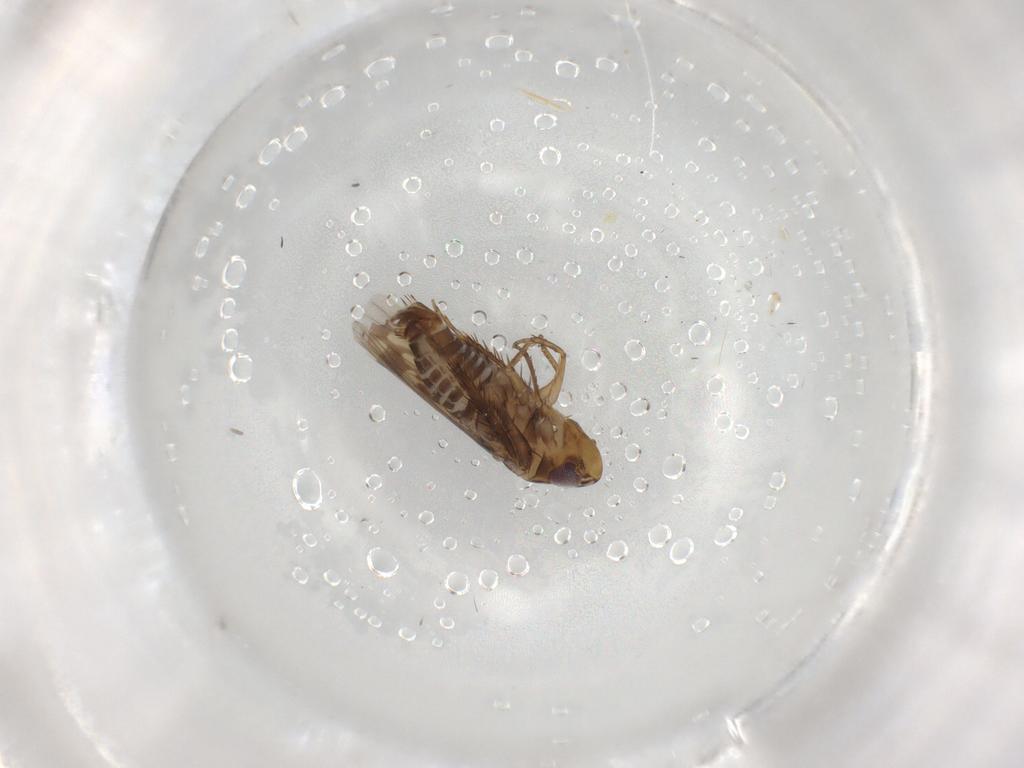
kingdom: Animalia
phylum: Arthropoda
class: Insecta
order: Hemiptera
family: Cicadellidae
